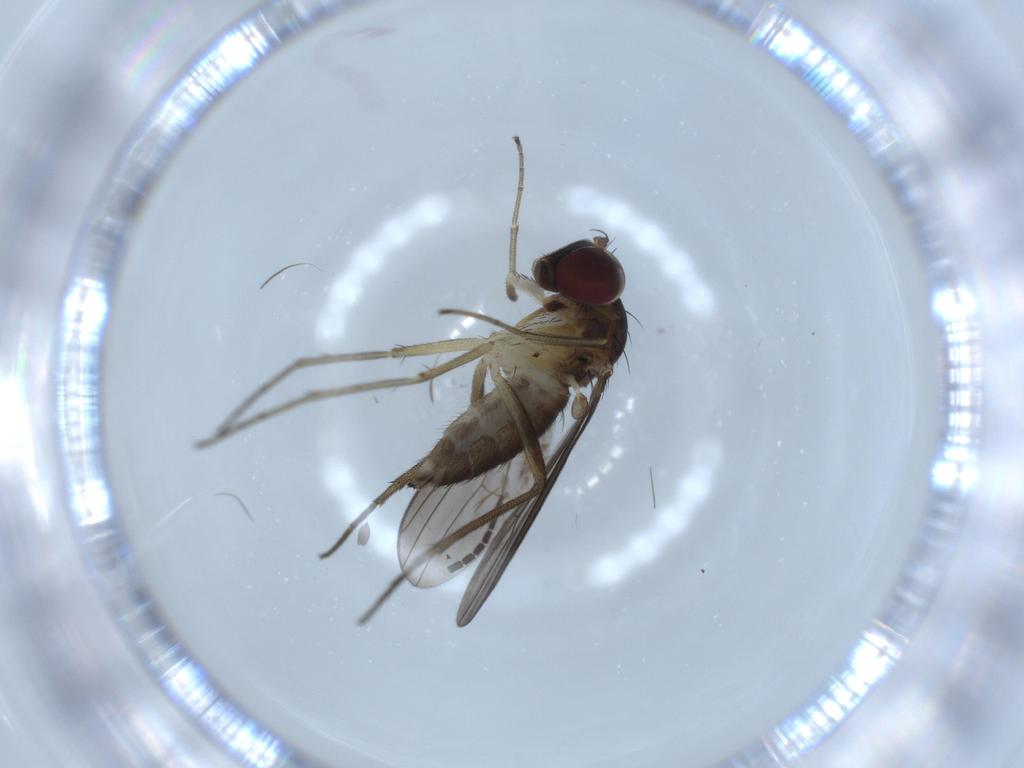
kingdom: Animalia
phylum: Arthropoda
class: Insecta
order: Diptera
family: Dolichopodidae
